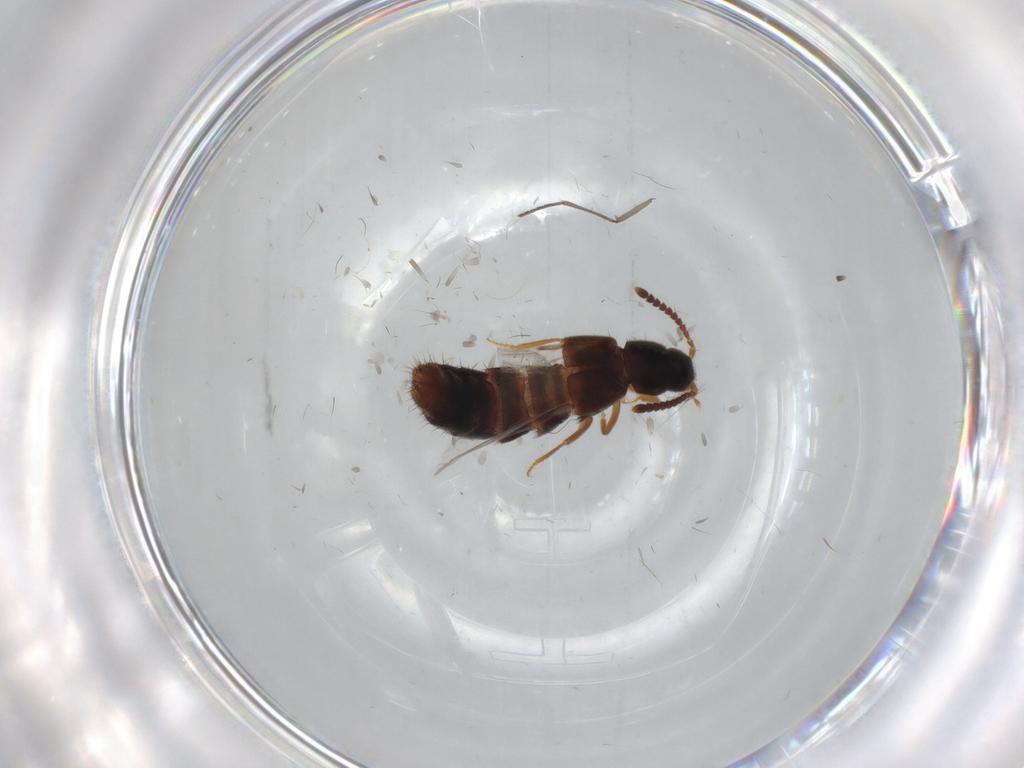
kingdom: Animalia
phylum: Arthropoda
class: Insecta
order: Coleoptera
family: Staphylinidae
